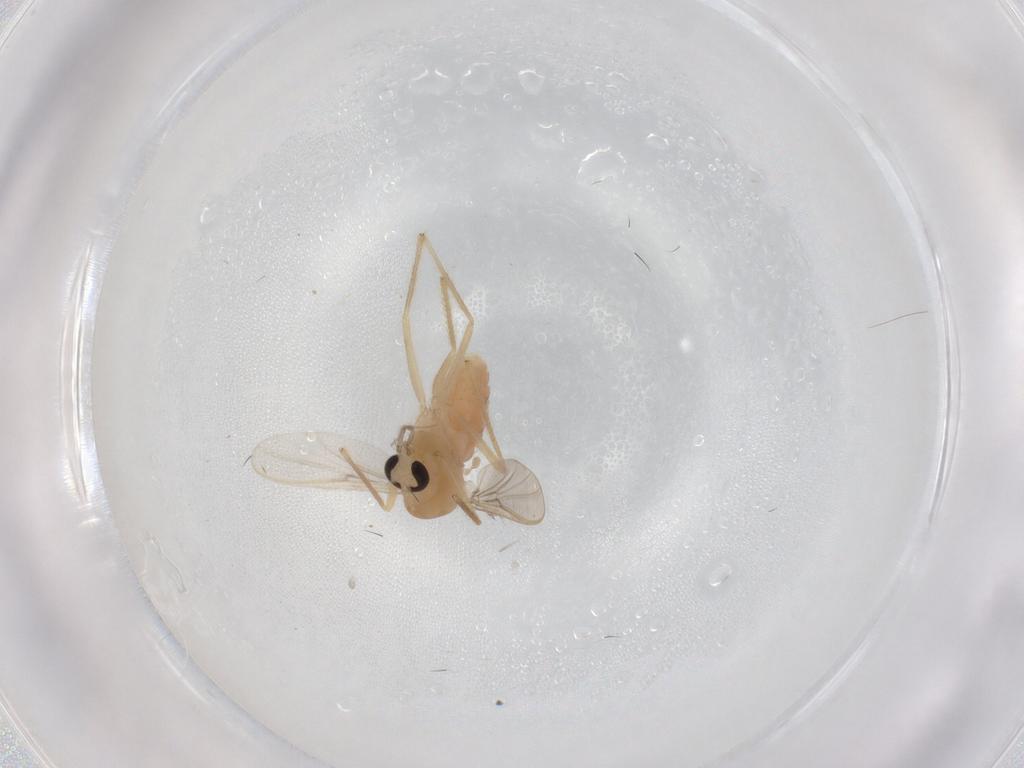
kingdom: Animalia
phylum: Arthropoda
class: Insecta
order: Diptera
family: Chironomidae
